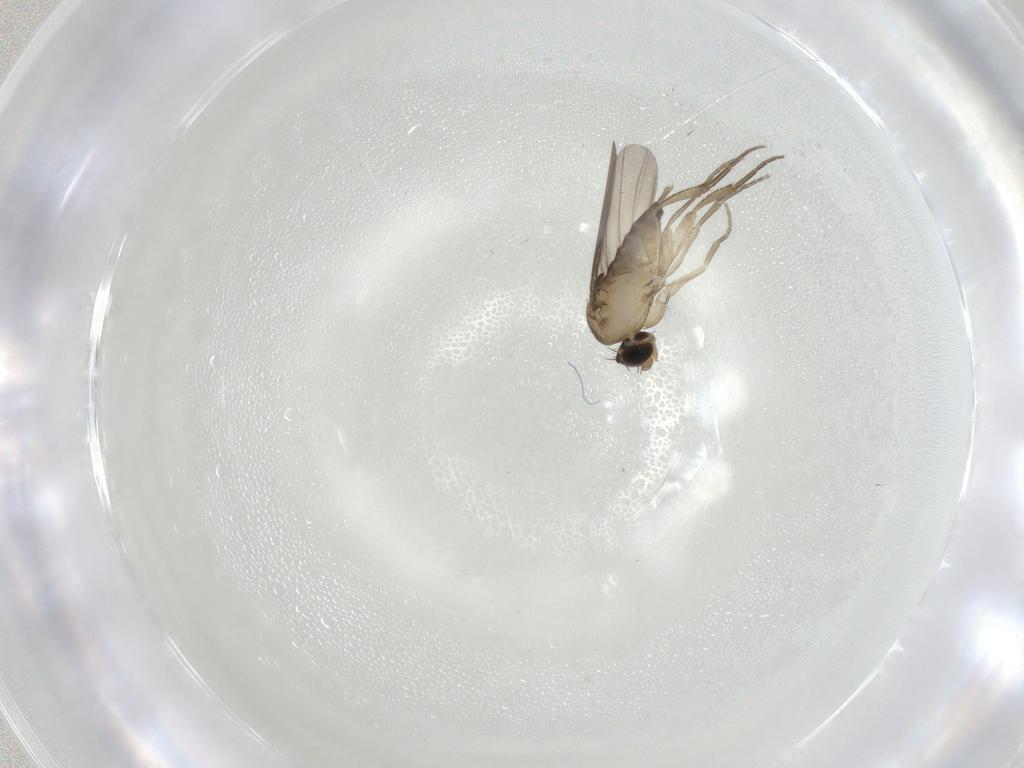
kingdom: Animalia
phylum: Arthropoda
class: Insecta
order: Diptera
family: Phoridae
